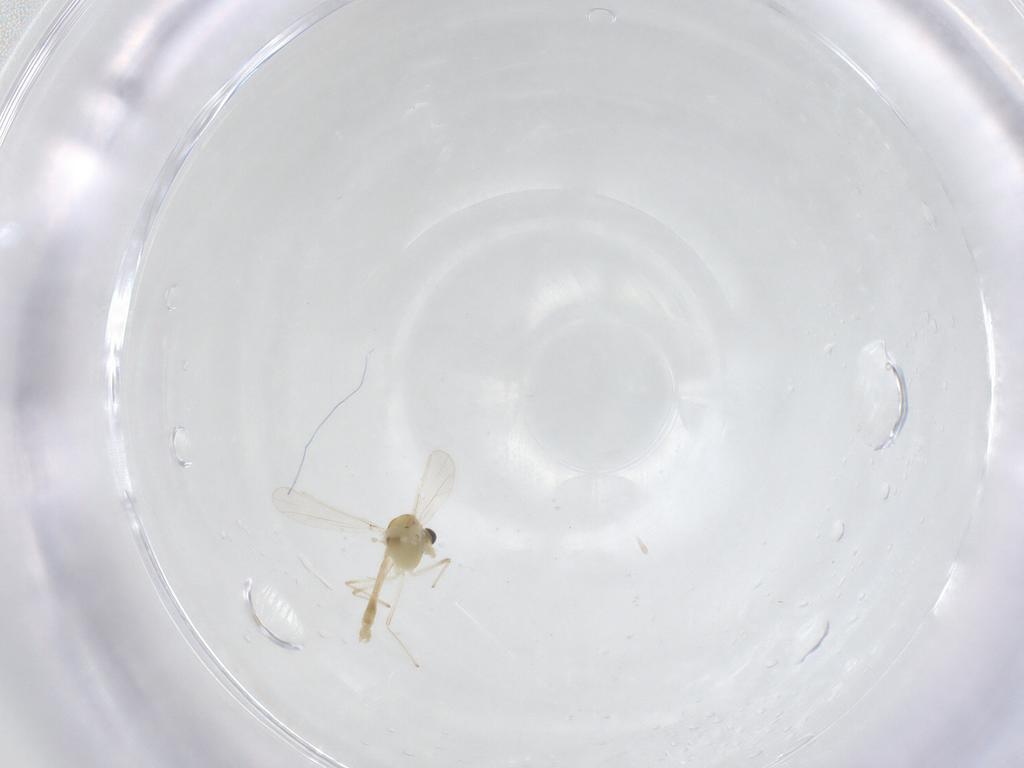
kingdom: Animalia
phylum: Arthropoda
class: Insecta
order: Diptera
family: Chironomidae
